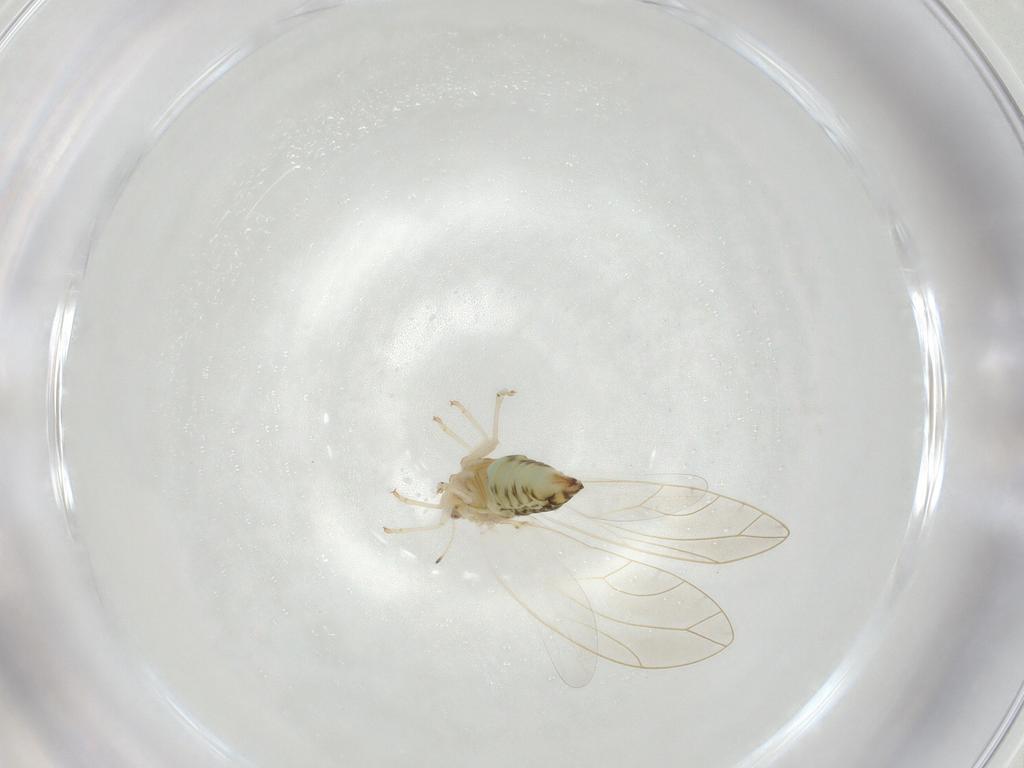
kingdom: Animalia
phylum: Arthropoda
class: Insecta
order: Hemiptera
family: Triozidae
